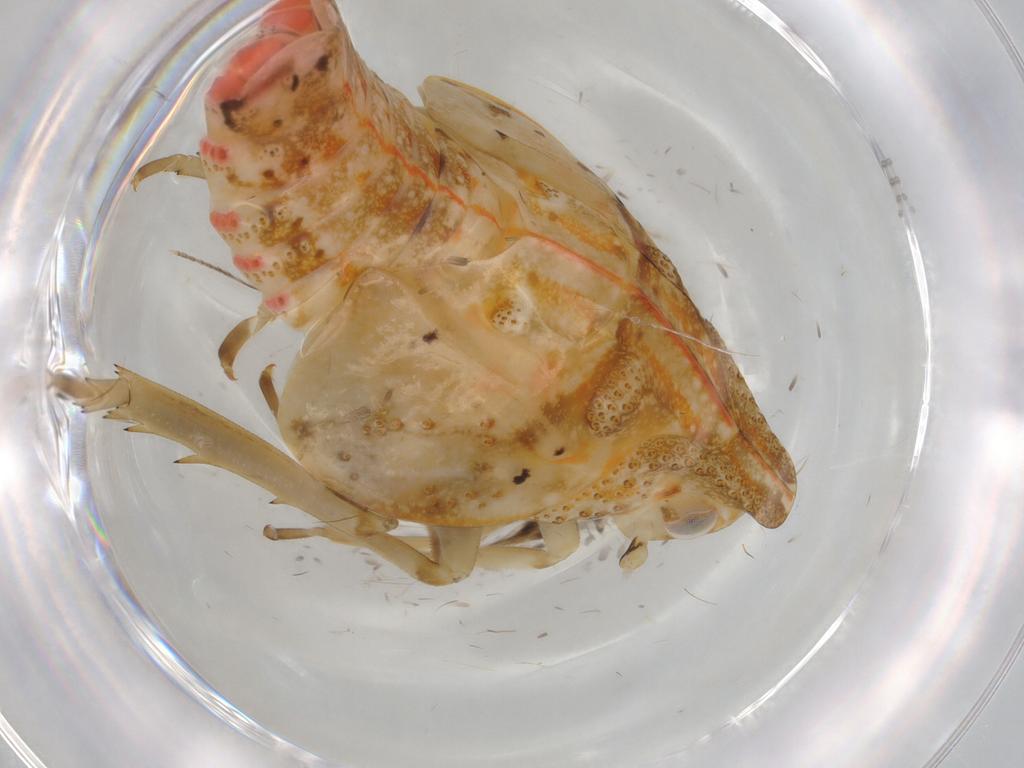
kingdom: Animalia
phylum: Arthropoda
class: Insecta
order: Hemiptera
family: Flatidae
